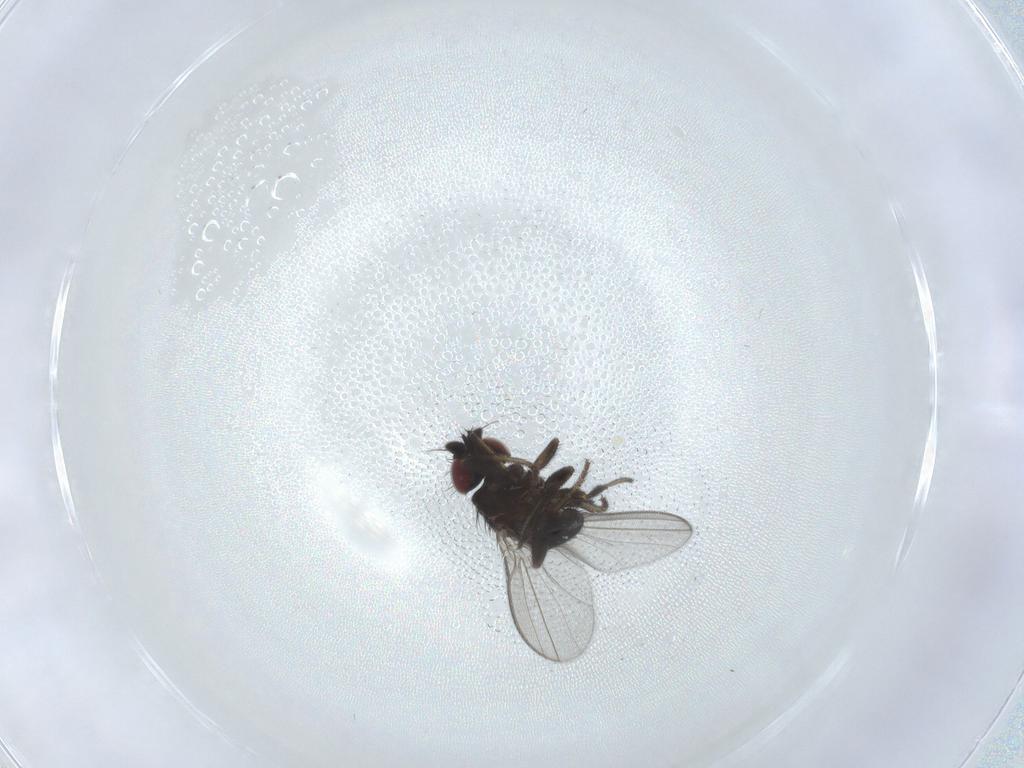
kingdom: Animalia
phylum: Arthropoda
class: Insecta
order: Diptera
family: Milichiidae
